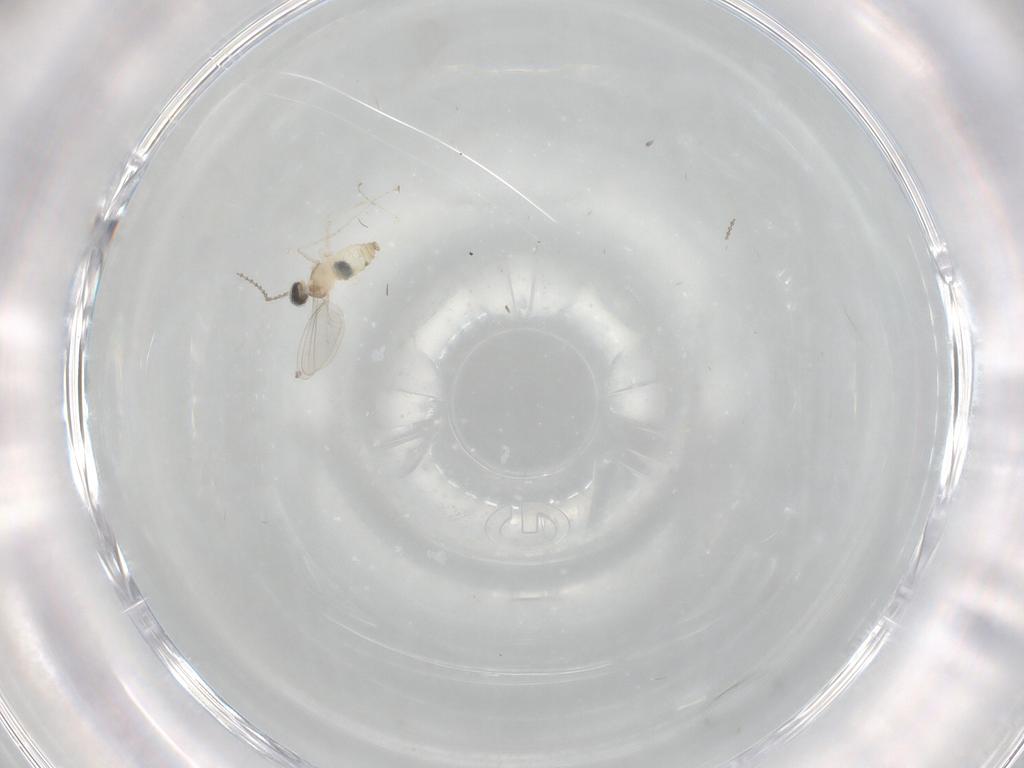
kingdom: Animalia
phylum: Arthropoda
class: Insecta
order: Diptera
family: Cecidomyiidae
